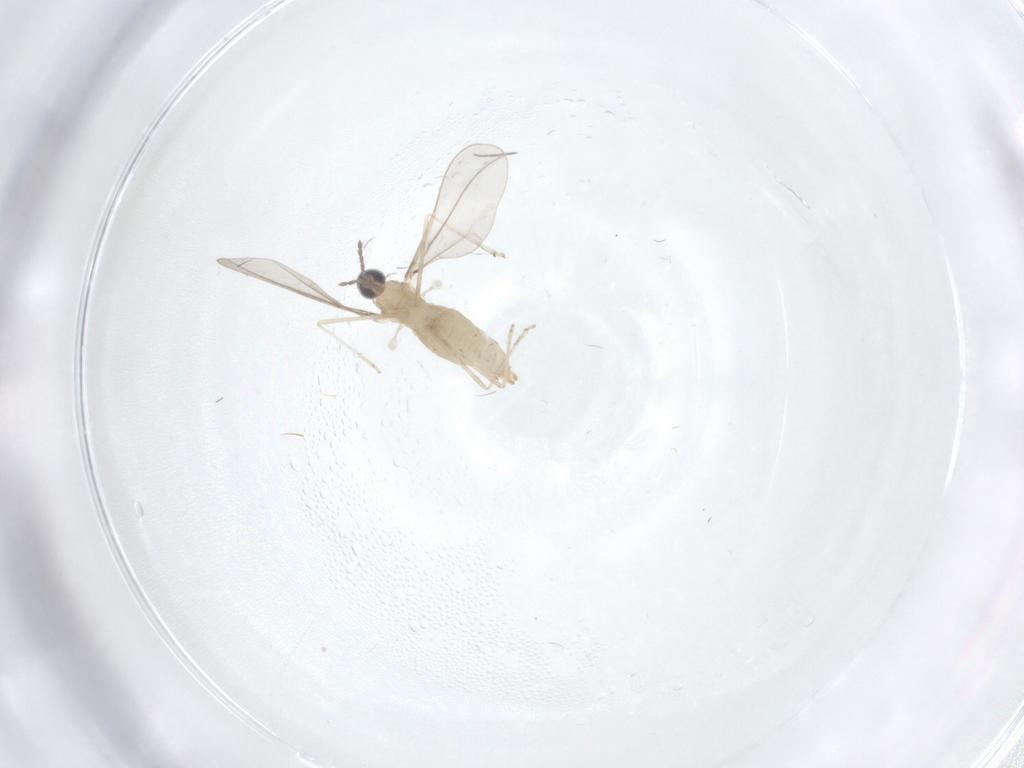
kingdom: Animalia
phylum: Arthropoda
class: Insecta
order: Diptera
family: Cecidomyiidae
